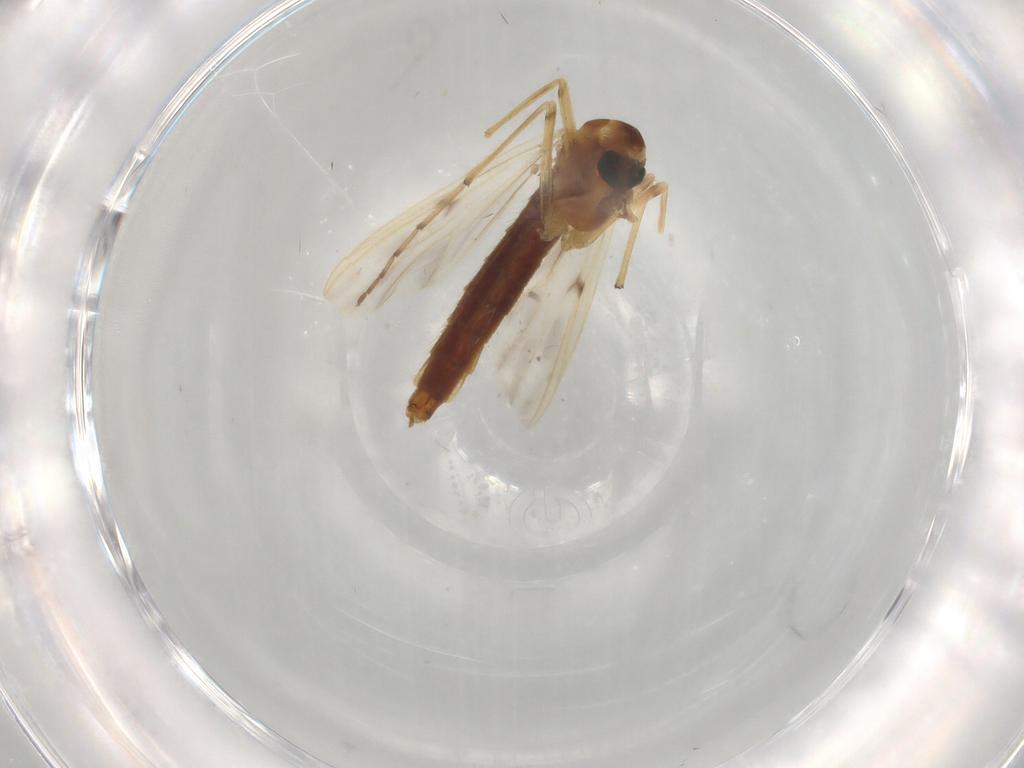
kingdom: Animalia
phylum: Arthropoda
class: Insecta
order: Diptera
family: Chironomidae
